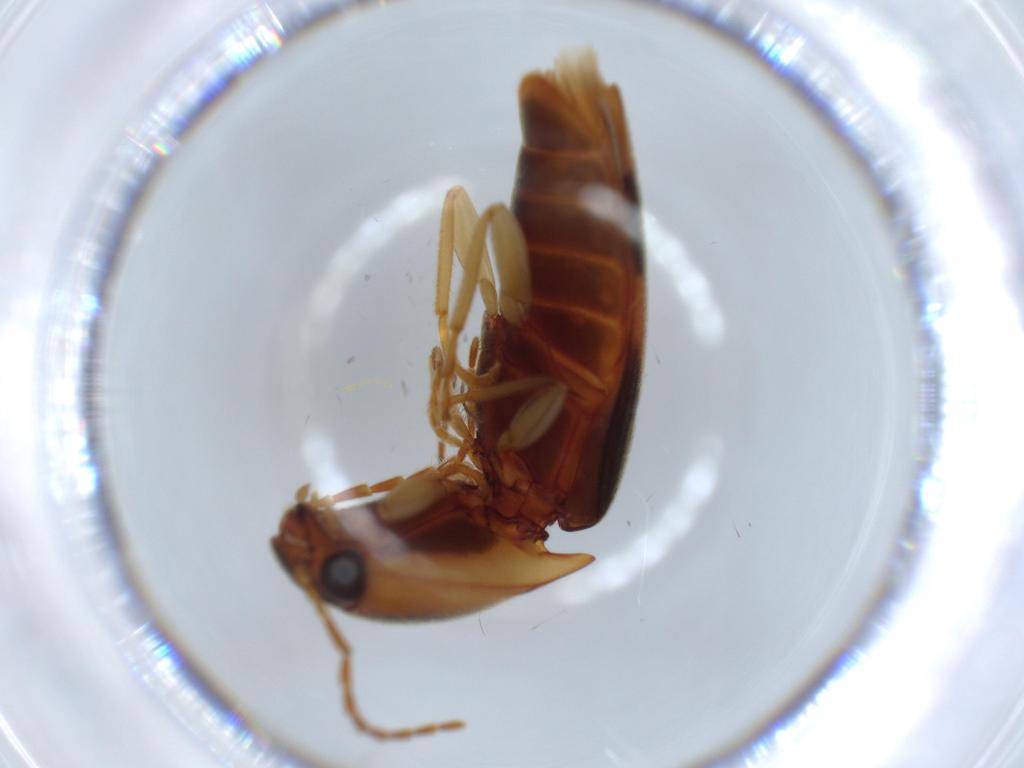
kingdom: Animalia
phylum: Arthropoda
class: Insecta
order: Coleoptera
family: Elateridae
